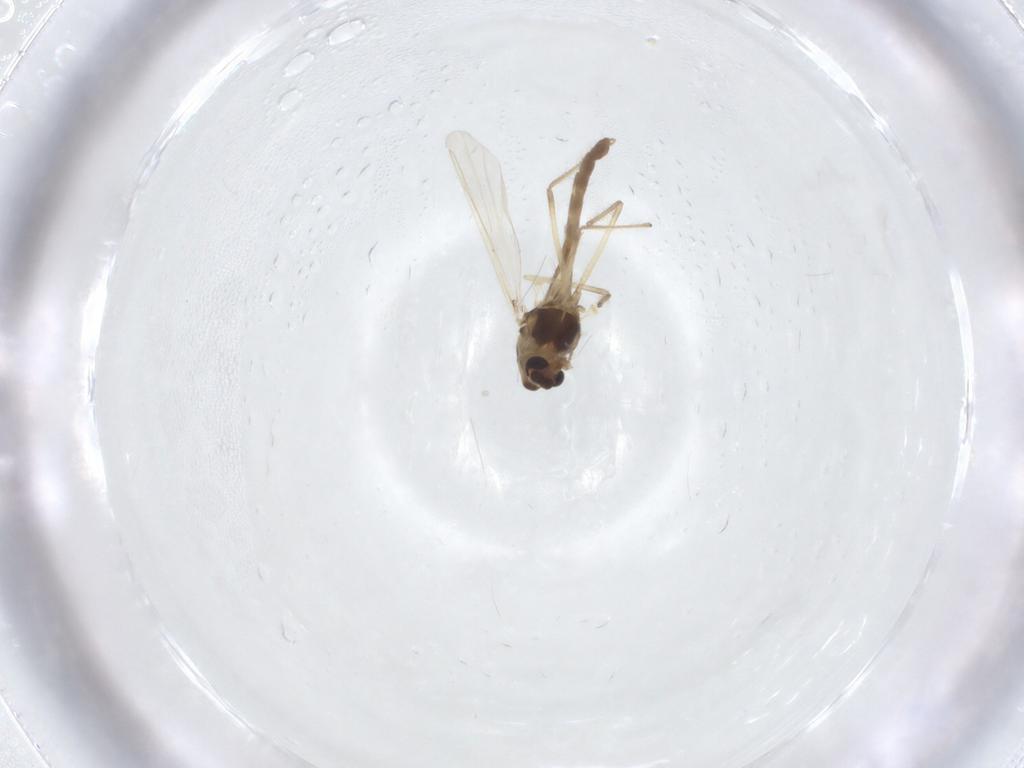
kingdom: Animalia
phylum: Arthropoda
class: Insecta
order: Diptera
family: Chironomidae
